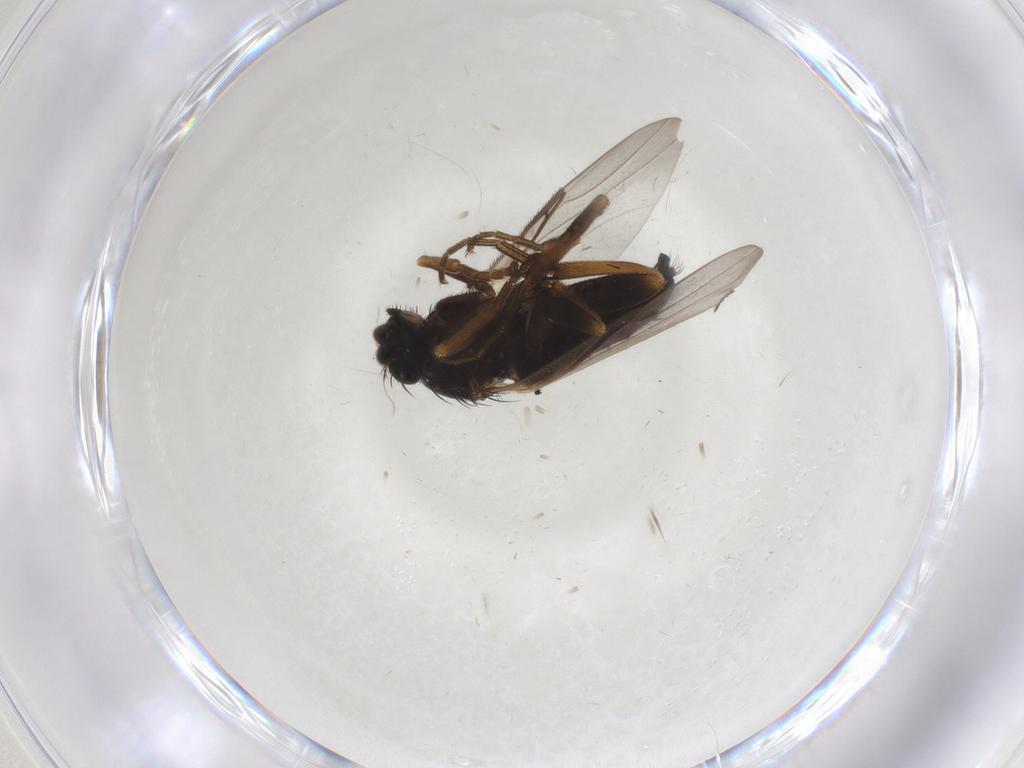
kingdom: Animalia
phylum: Arthropoda
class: Insecta
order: Diptera
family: Phoridae
